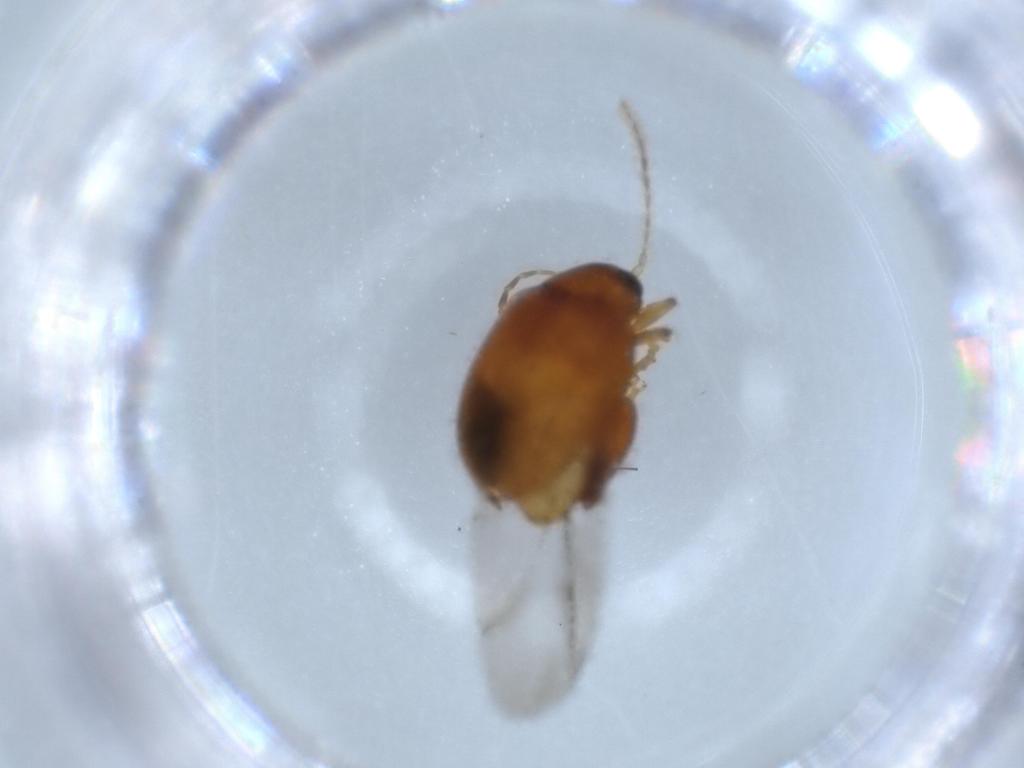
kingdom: Animalia
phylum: Arthropoda
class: Insecta
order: Coleoptera
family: Chrysomelidae
